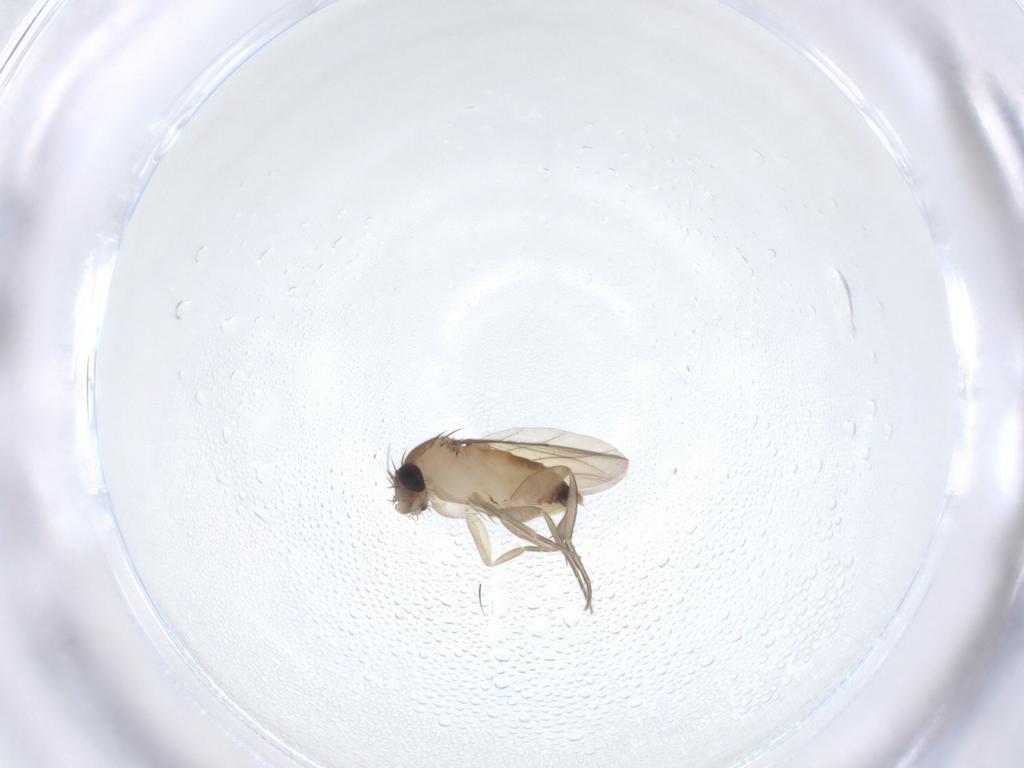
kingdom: Animalia
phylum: Arthropoda
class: Insecta
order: Diptera
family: Phoridae
